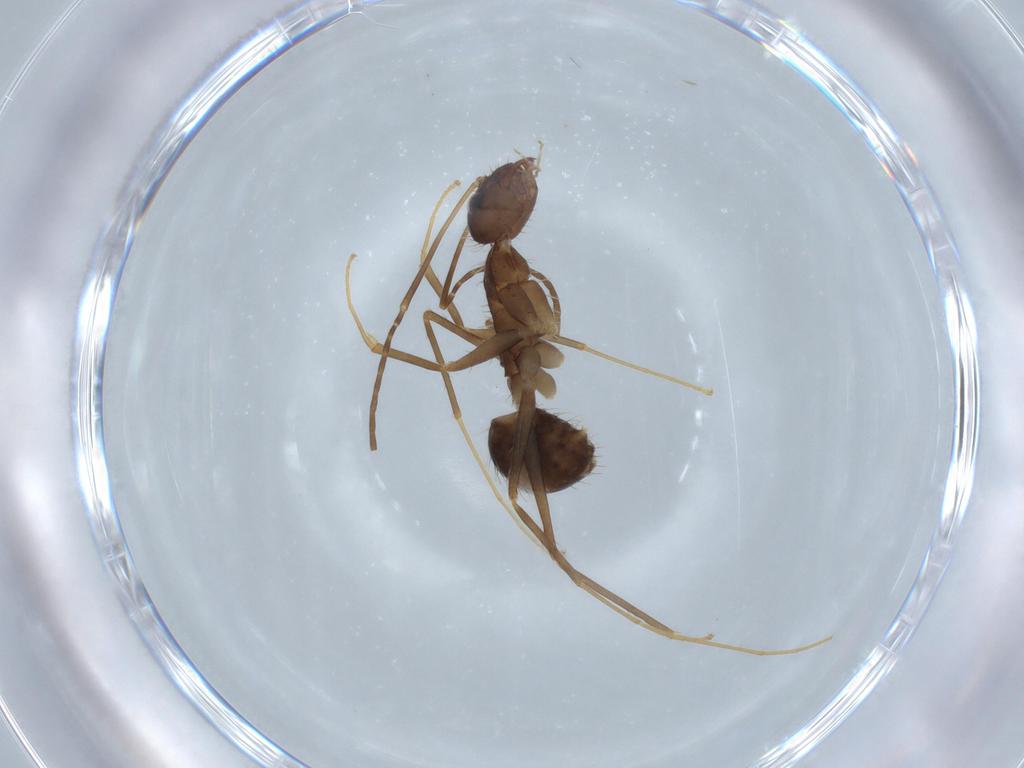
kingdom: Animalia
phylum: Arthropoda
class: Insecta
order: Hymenoptera
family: Formicidae
